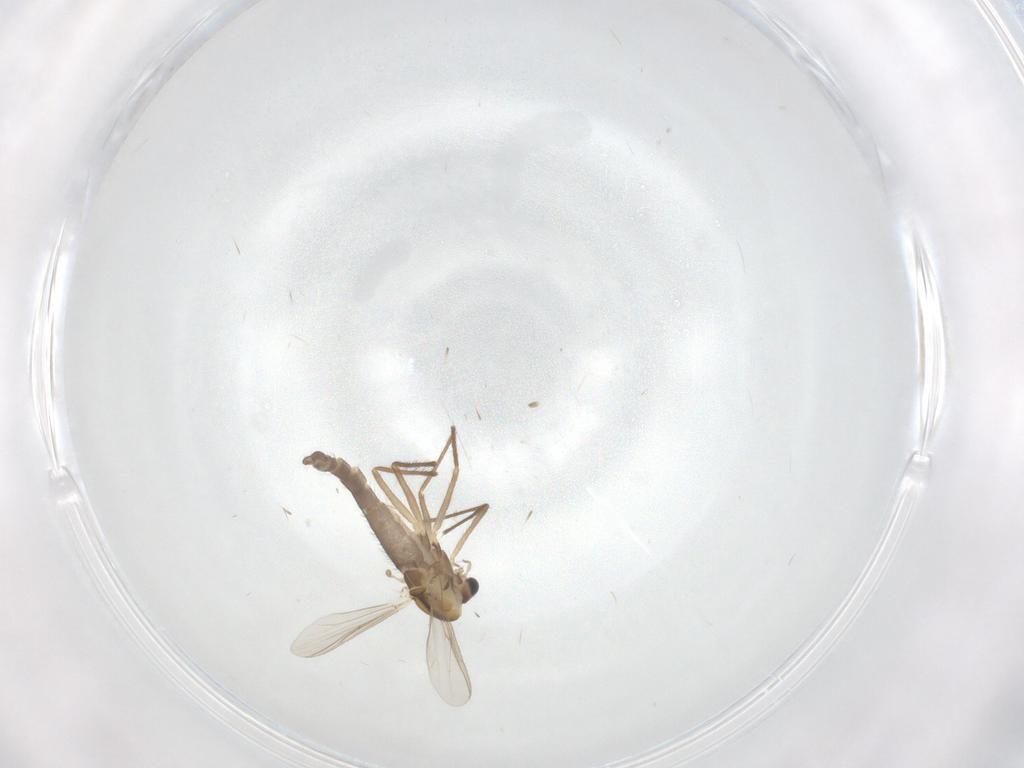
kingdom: Animalia
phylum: Arthropoda
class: Insecta
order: Diptera
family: Chironomidae
